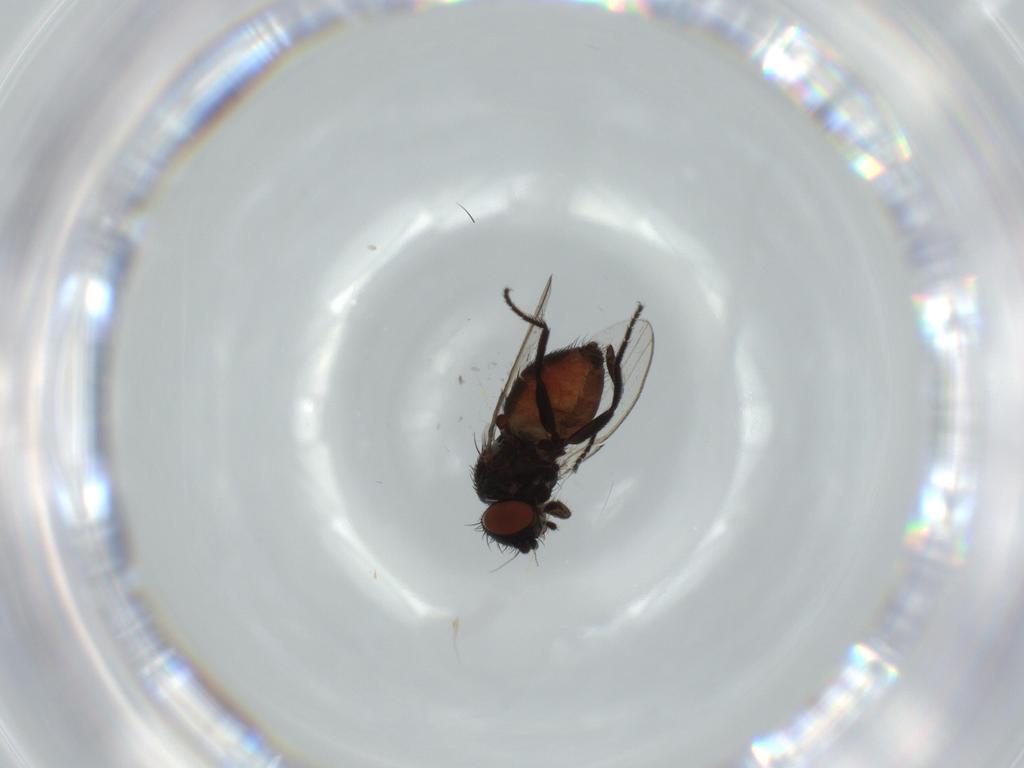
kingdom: Animalia
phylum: Arthropoda
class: Insecta
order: Diptera
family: Milichiidae
